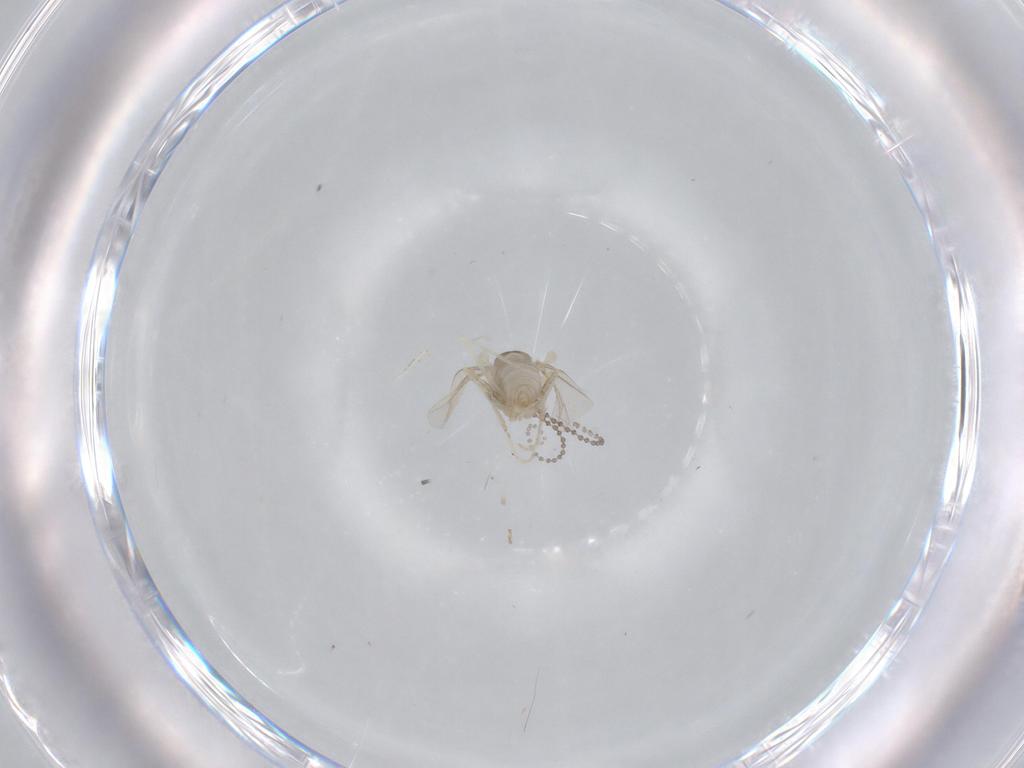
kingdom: Animalia
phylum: Arthropoda
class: Insecta
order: Diptera
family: Cecidomyiidae
